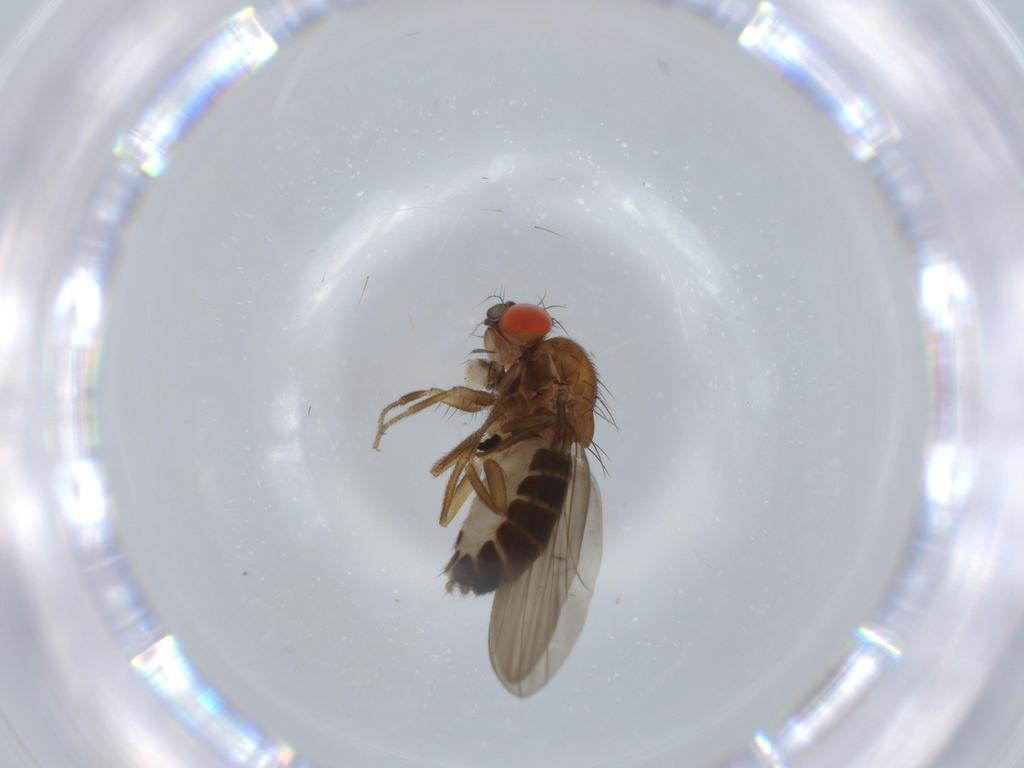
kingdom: Animalia
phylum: Arthropoda
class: Insecta
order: Diptera
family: Drosophilidae
